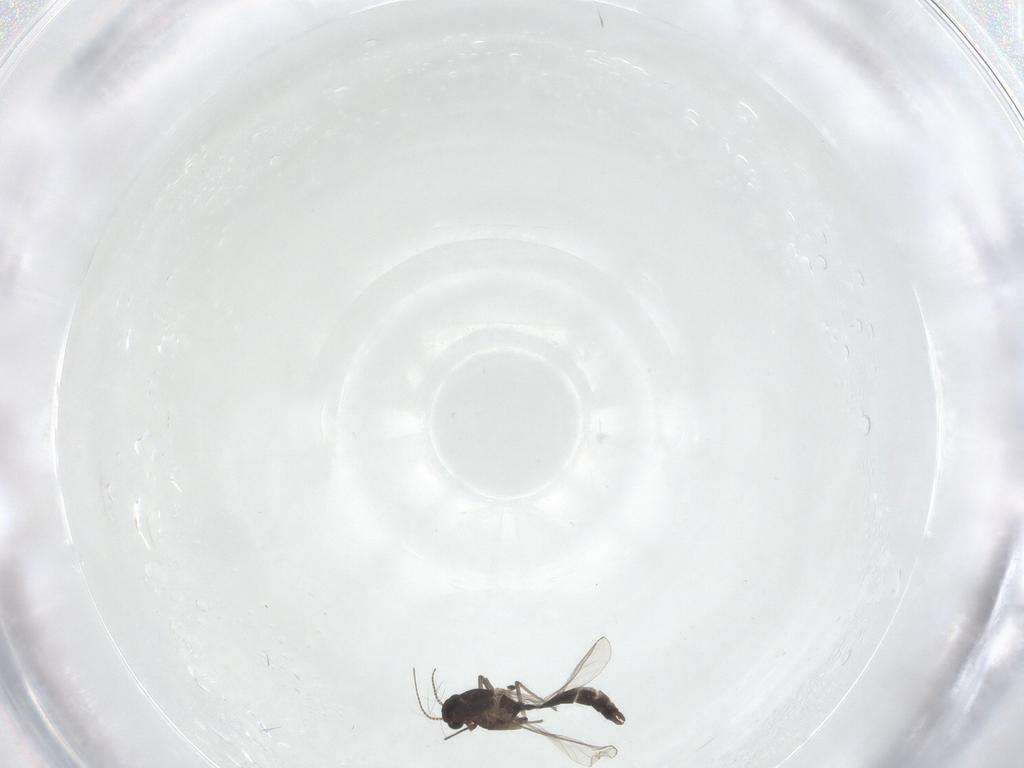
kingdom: Animalia
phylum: Arthropoda
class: Insecta
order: Diptera
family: Chironomidae
